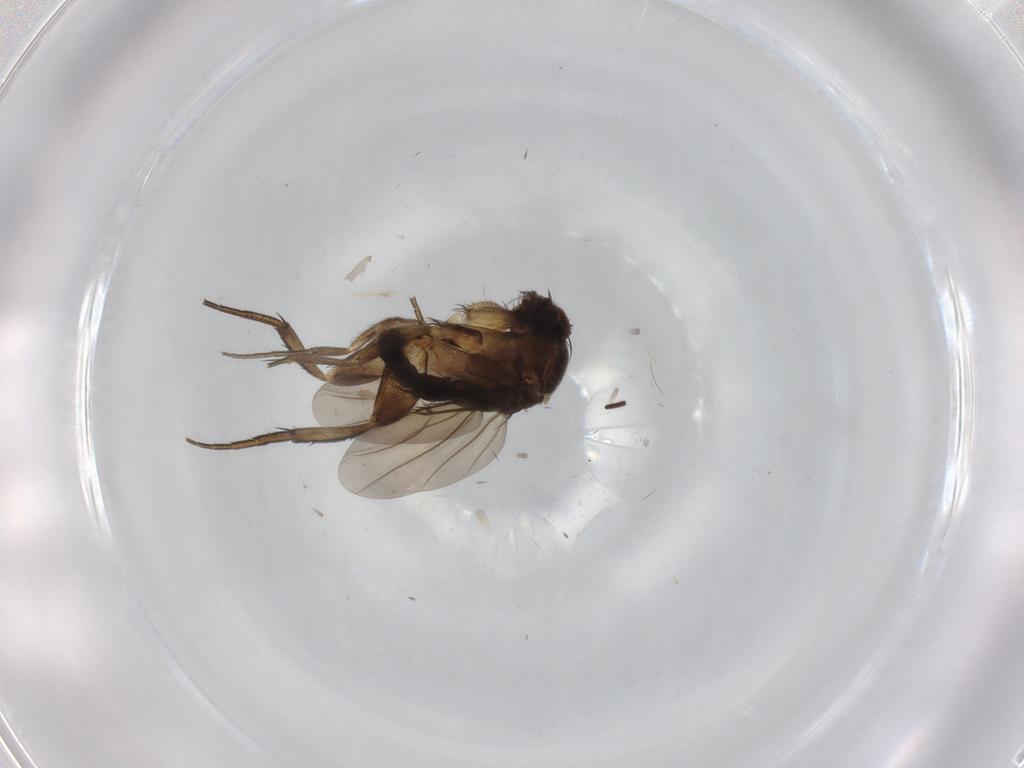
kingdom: Animalia
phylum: Arthropoda
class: Insecta
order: Diptera
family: Phoridae
